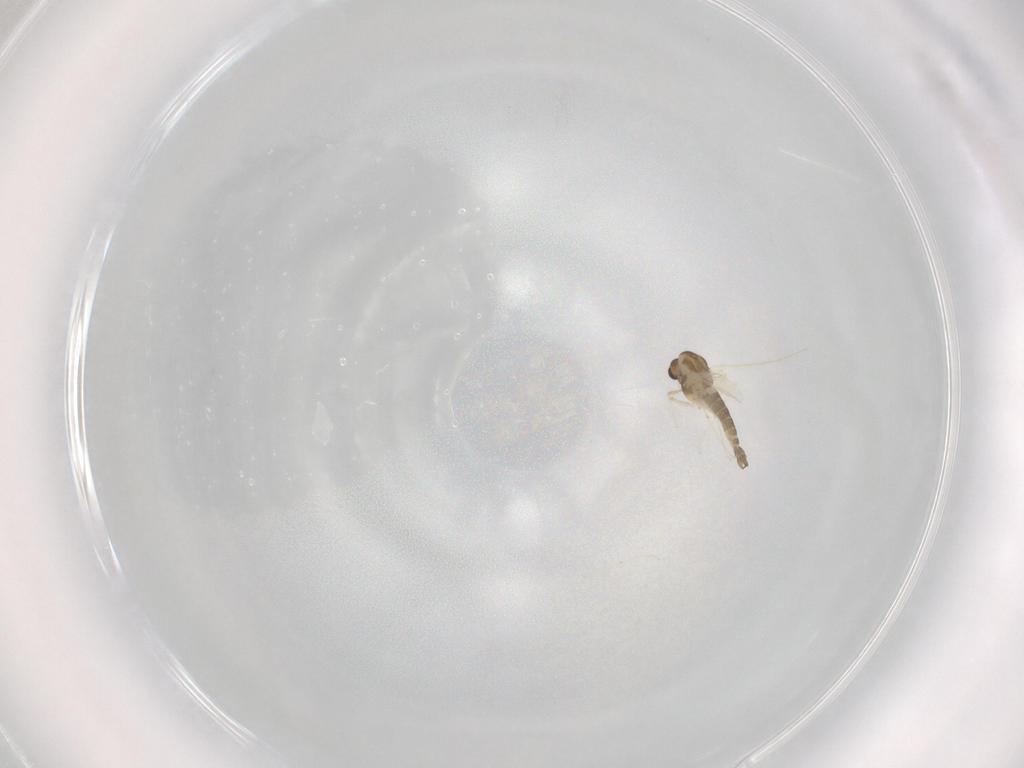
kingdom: Animalia
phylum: Arthropoda
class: Insecta
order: Diptera
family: Chironomidae
